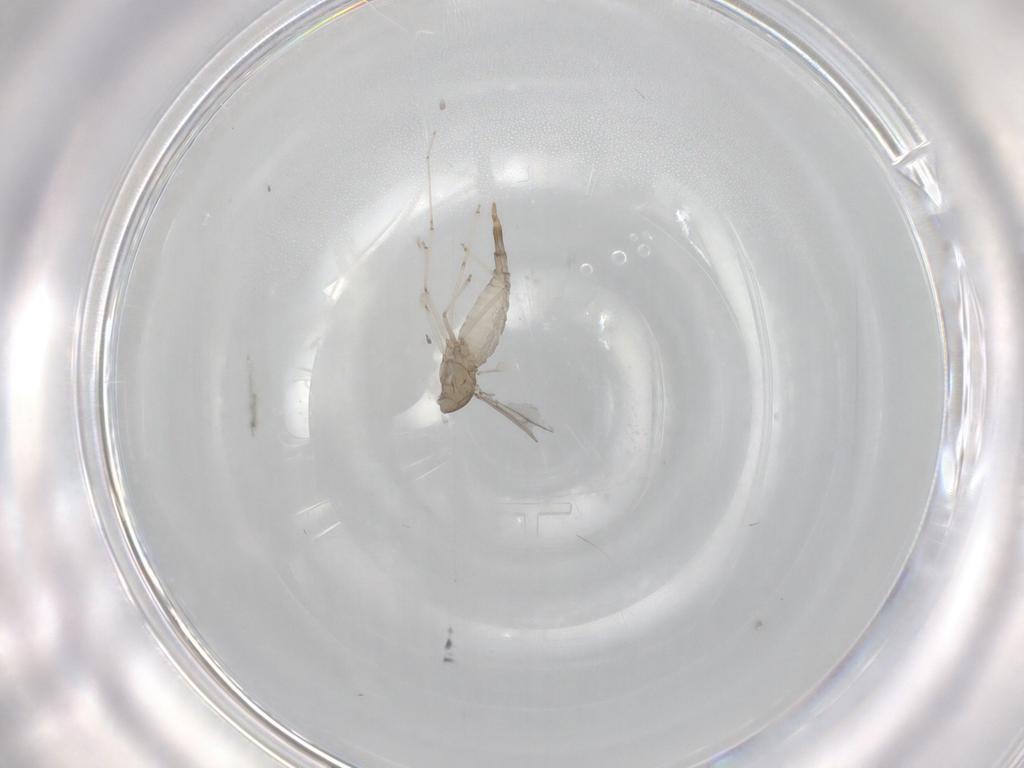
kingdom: Animalia
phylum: Arthropoda
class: Insecta
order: Diptera
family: Cecidomyiidae
